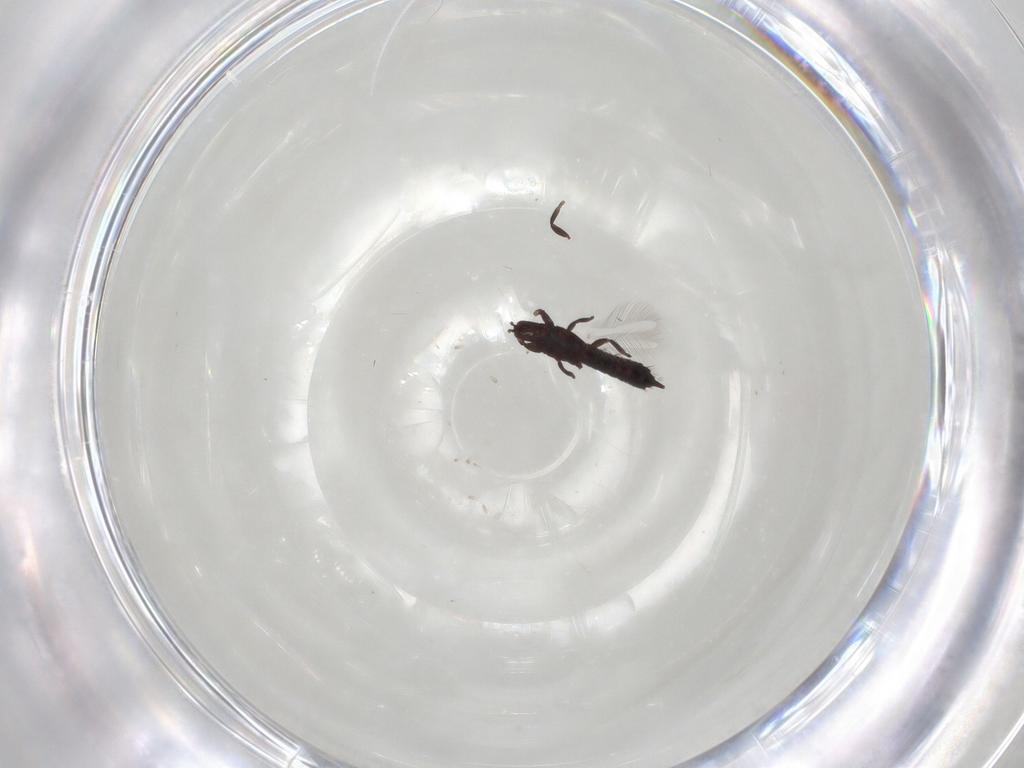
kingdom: Animalia
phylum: Arthropoda
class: Insecta
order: Thysanoptera
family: Phlaeothripidae
